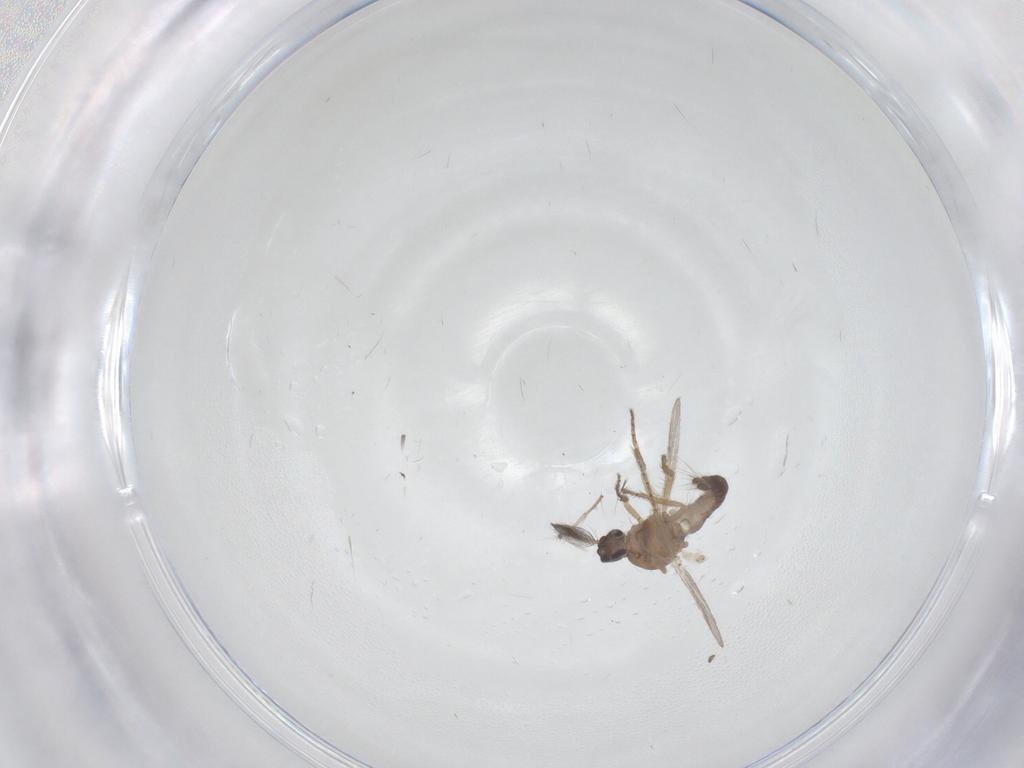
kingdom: Animalia
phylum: Arthropoda
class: Insecta
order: Diptera
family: Ceratopogonidae
